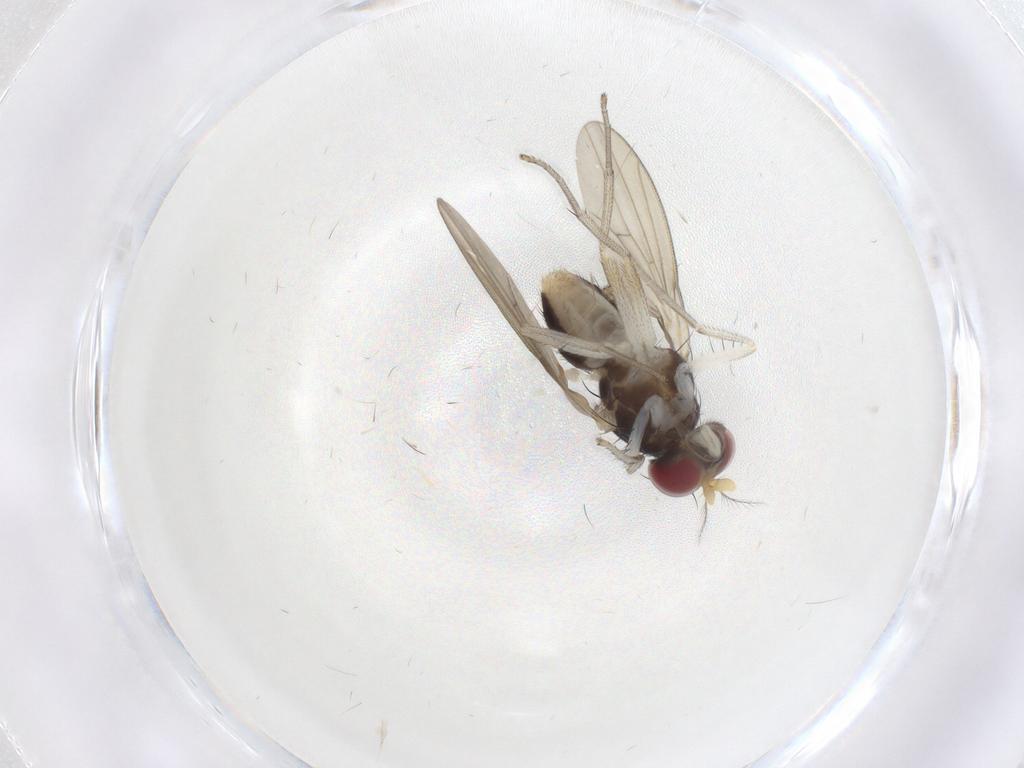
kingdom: Animalia
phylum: Arthropoda
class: Insecta
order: Diptera
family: Lauxaniidae
